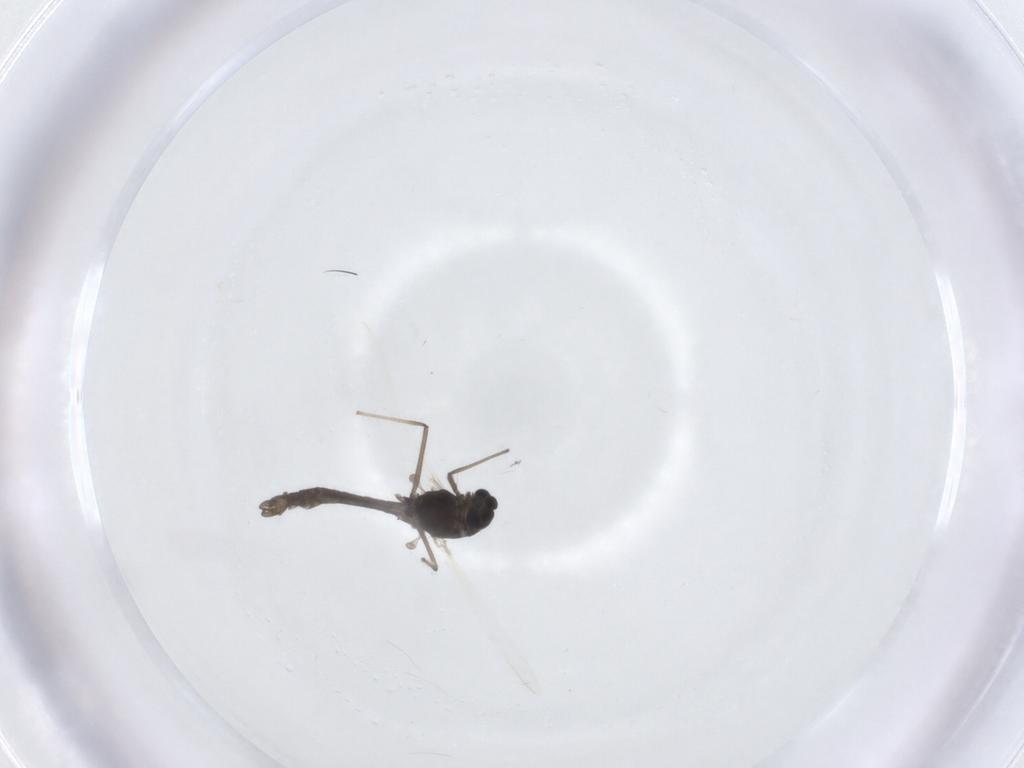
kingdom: Animalia
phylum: Arthropoda
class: Insecta
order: Diptera
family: Chironomidae
